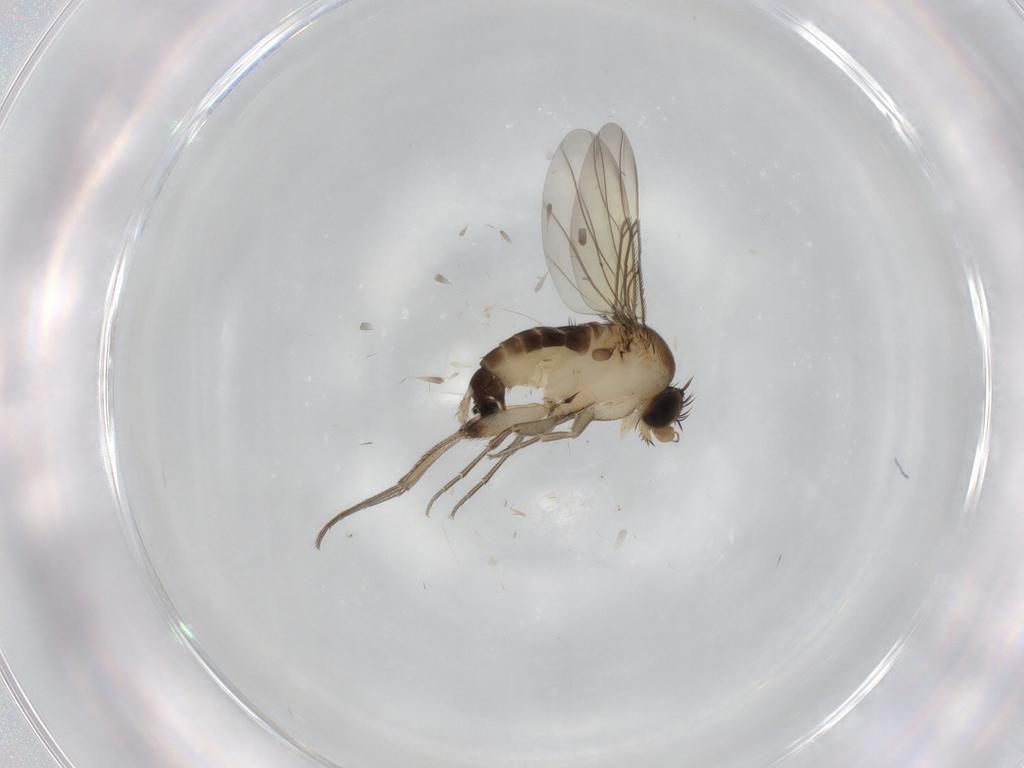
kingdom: Animalia
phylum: Arthropoda
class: Insecta
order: Diptera
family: Phoridae
